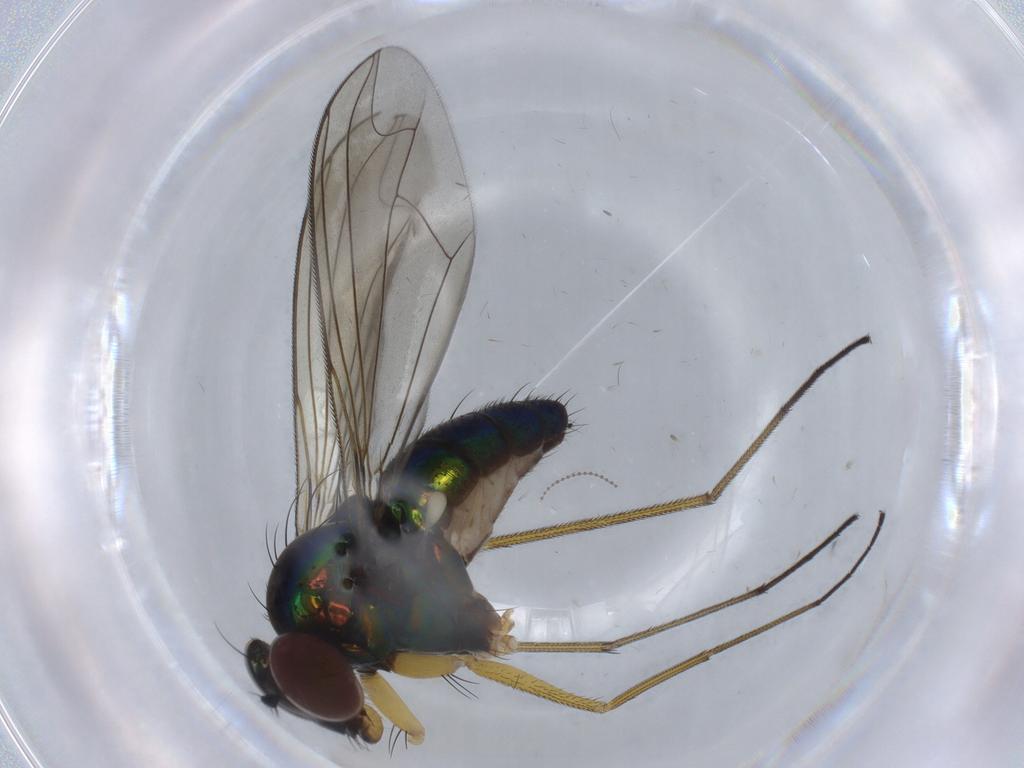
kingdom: Animalia
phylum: Arthropoda
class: Insecta
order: Diptera
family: Dolichopodidae
